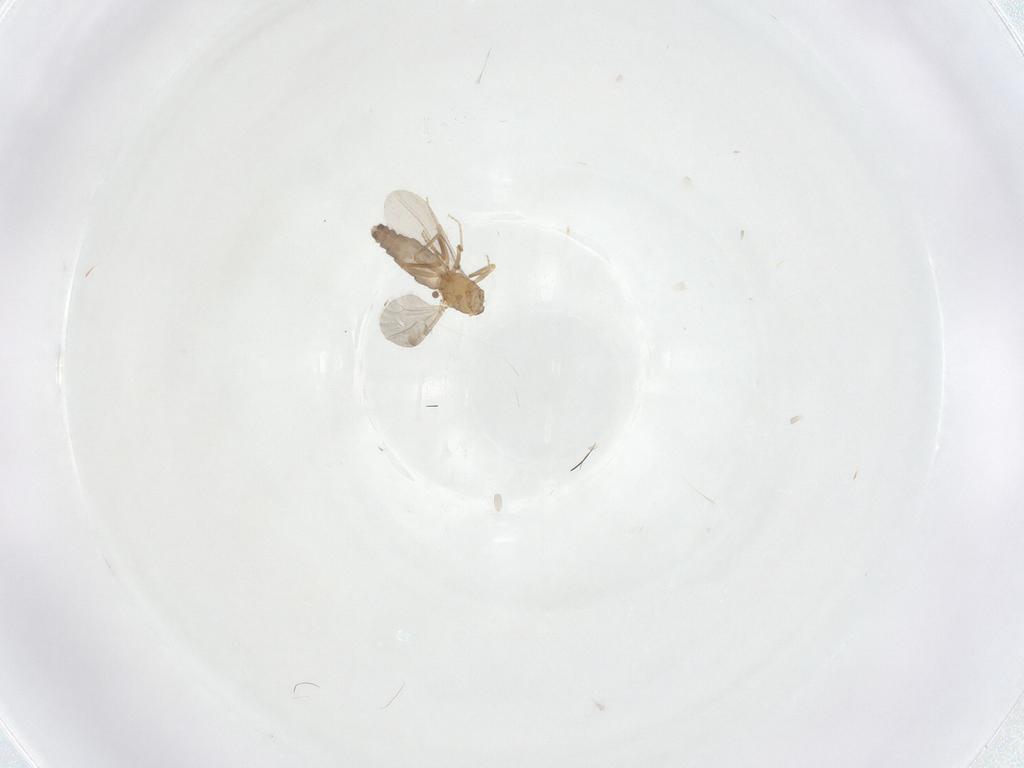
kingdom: Animalia
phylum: Arthropoda
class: Insecta
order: Diptera
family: Ceratopogonidae
